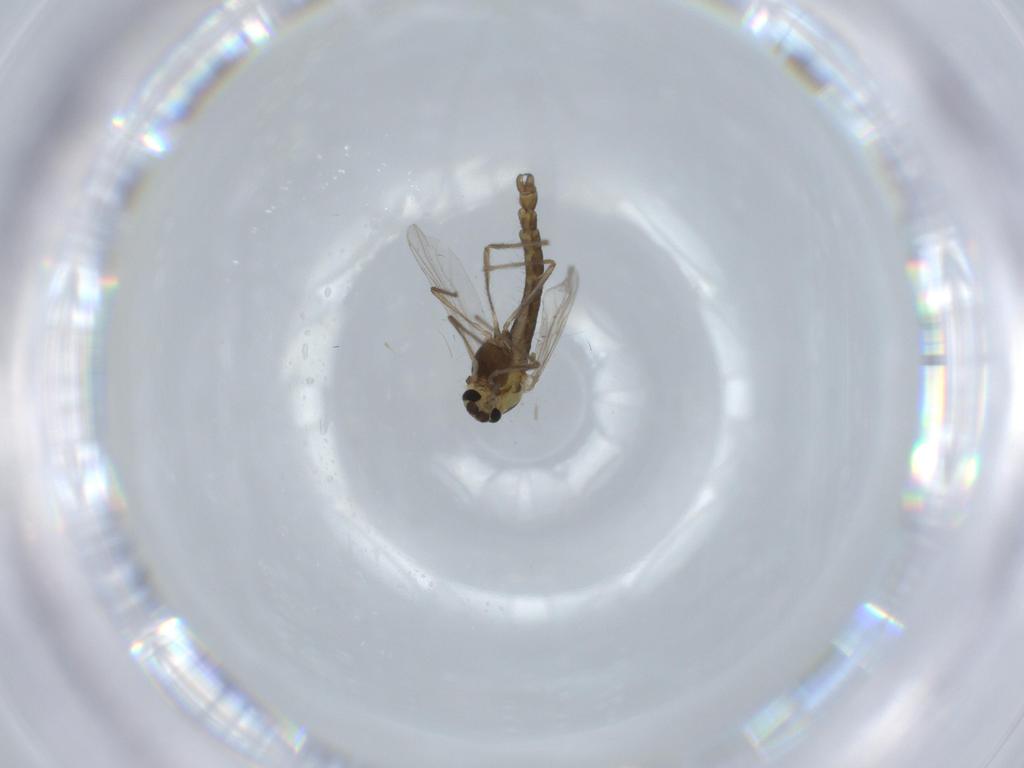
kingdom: Animalia
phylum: Arthropoda
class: Insecta
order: Diptera
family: Chironomidae
